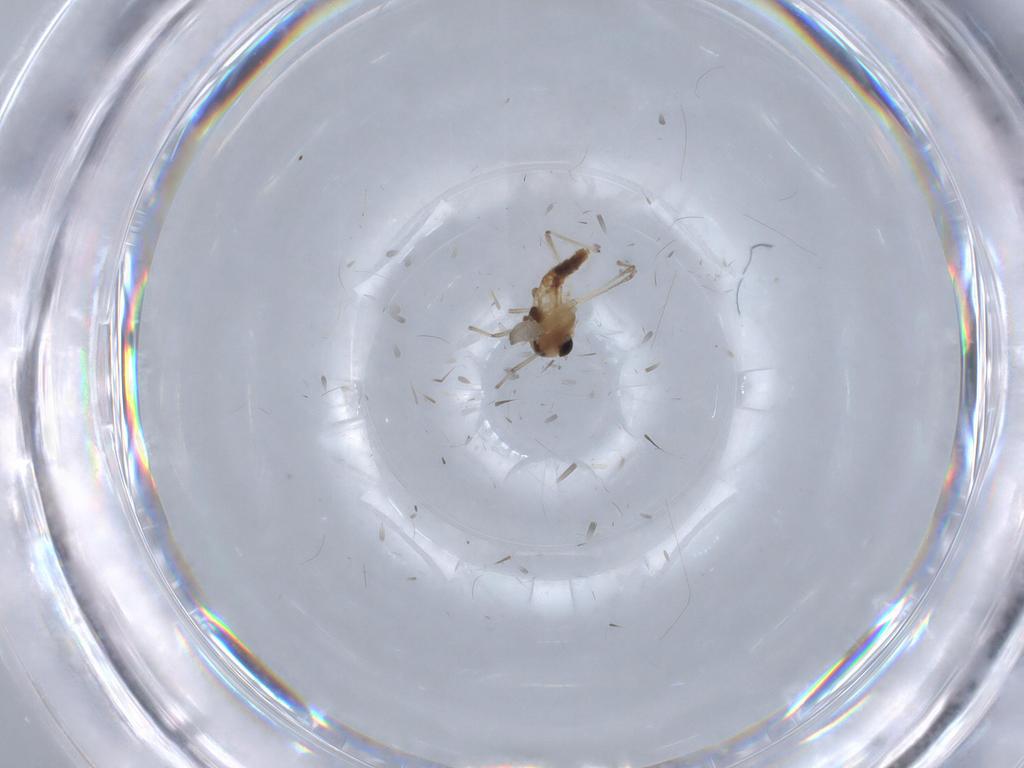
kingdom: Animalia
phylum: Arthropoda
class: Insecta
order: Diptera
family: Chironomidae
